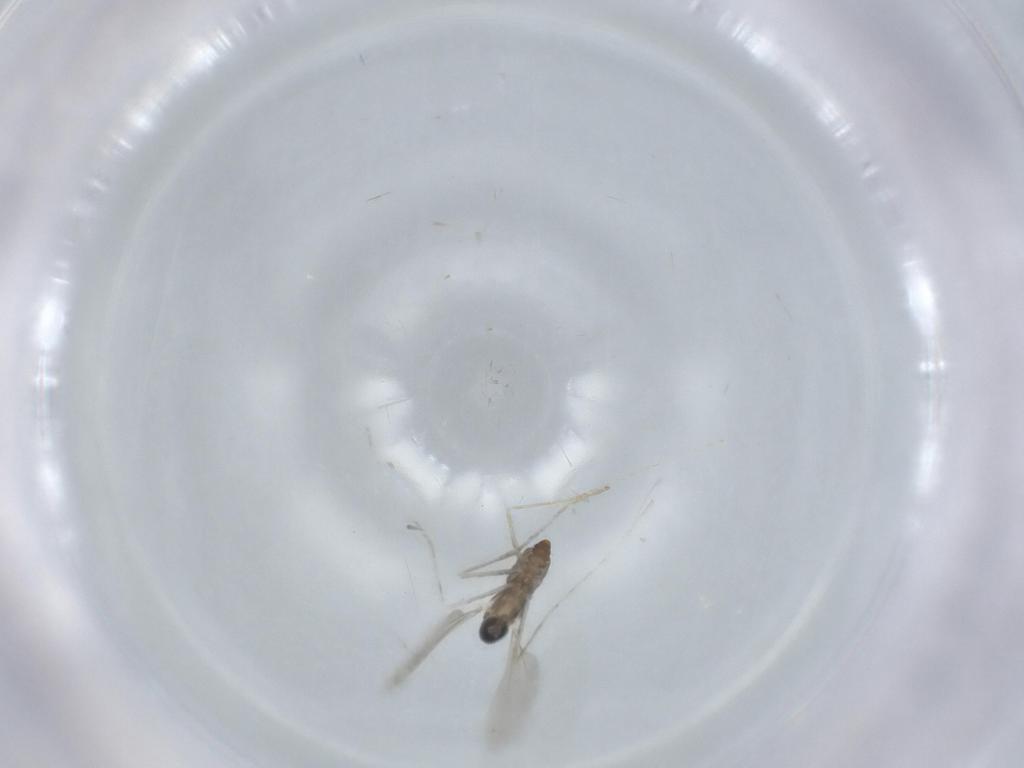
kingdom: Animalia
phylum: Arthropoda
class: Insecta
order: Diptera
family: Cecidomyiidae
